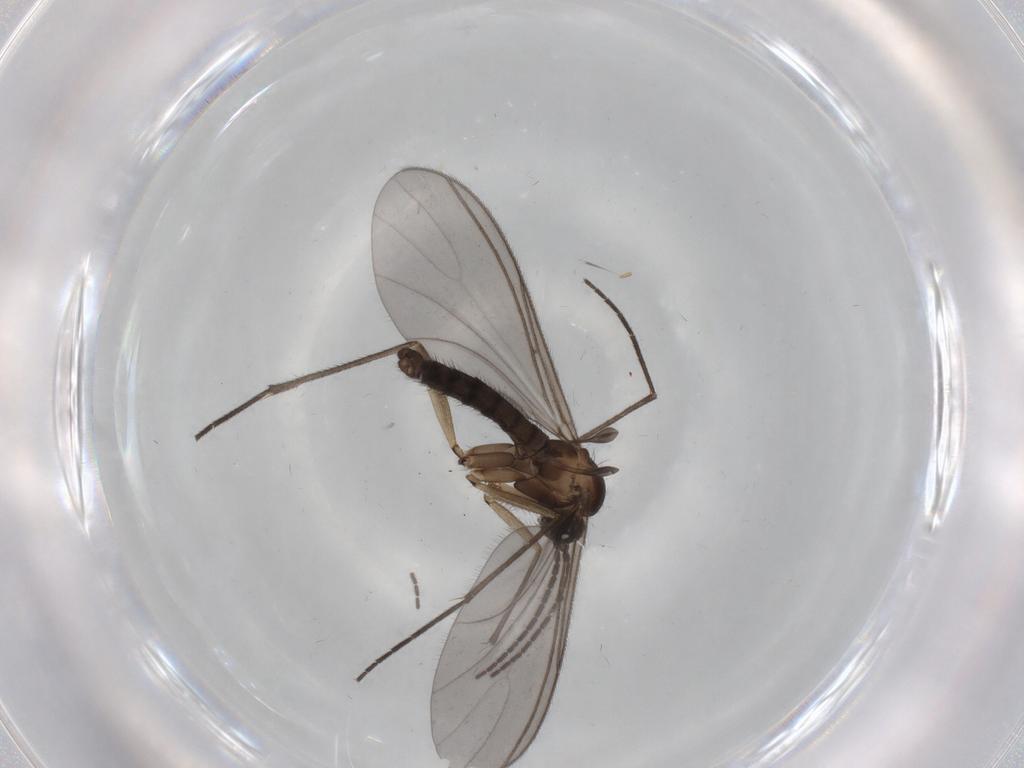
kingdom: Animalia
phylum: Arthropoda
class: Insecta
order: Diptera
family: Sciaridae
